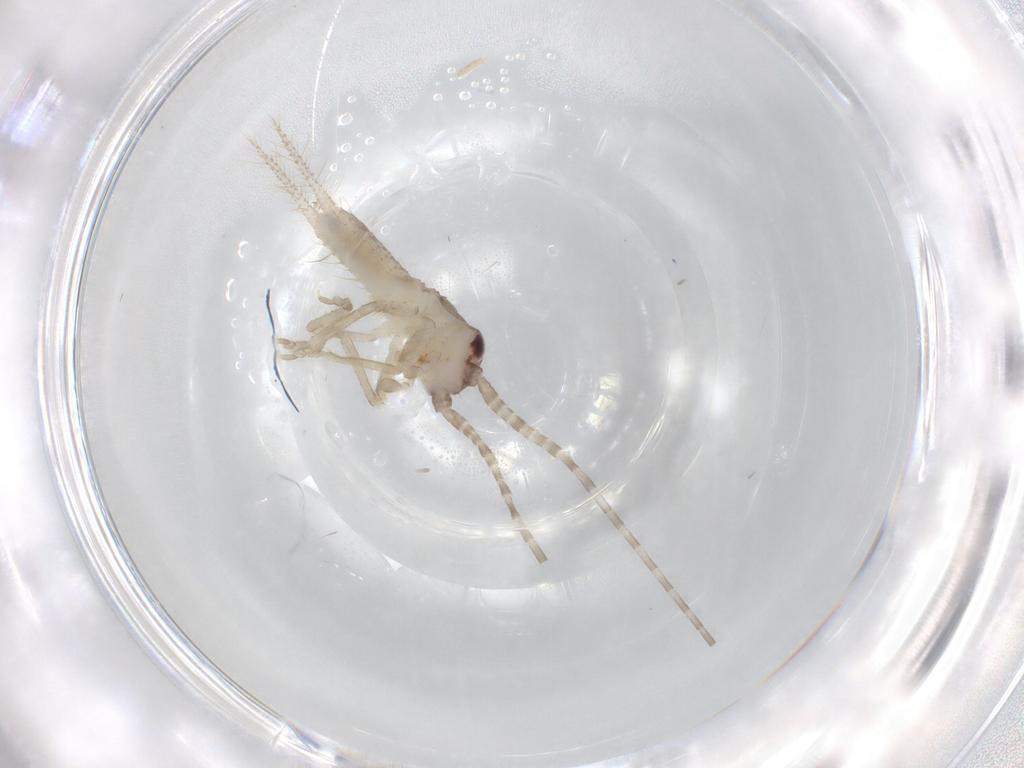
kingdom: Animalia
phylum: Arthropoda
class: Insecta
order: Orthoptera
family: Gryllidae
